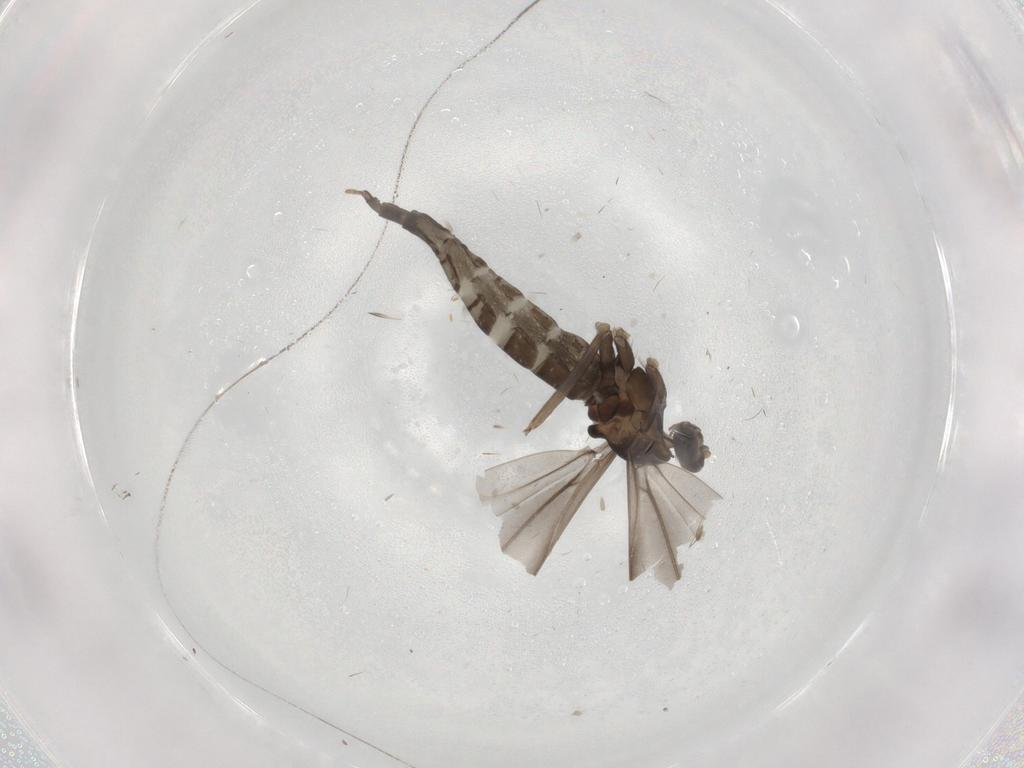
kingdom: Animalia
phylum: Arthropoda
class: Insecta
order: Diptera
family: Cecidomyiidae
